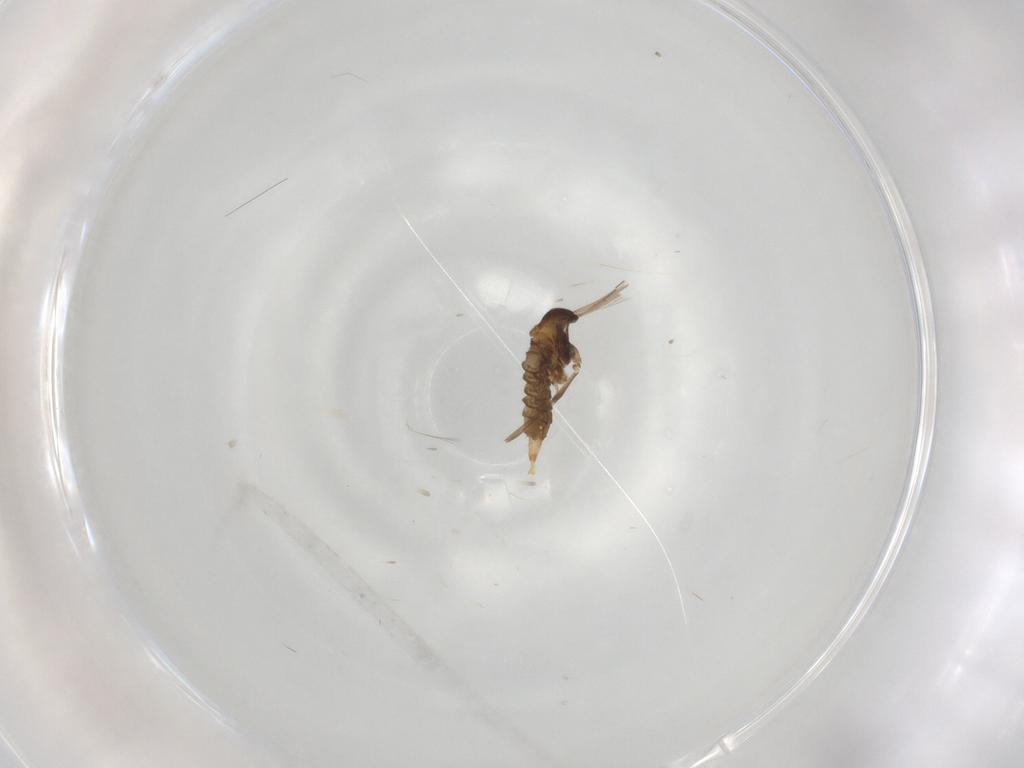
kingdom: Animalia
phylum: Arthropoda
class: Insecta
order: Diptera
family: Cecidomyiidae
